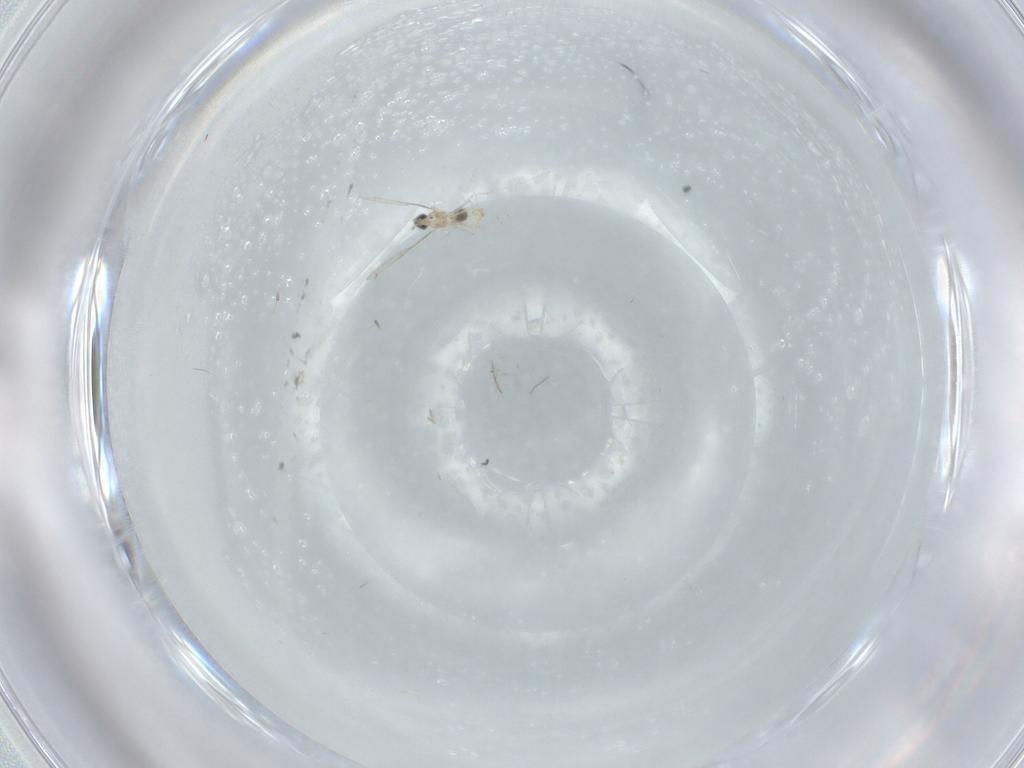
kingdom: Animalia
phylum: Arthropoda
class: Insecta
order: Diptera
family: Cecidomyiidae
